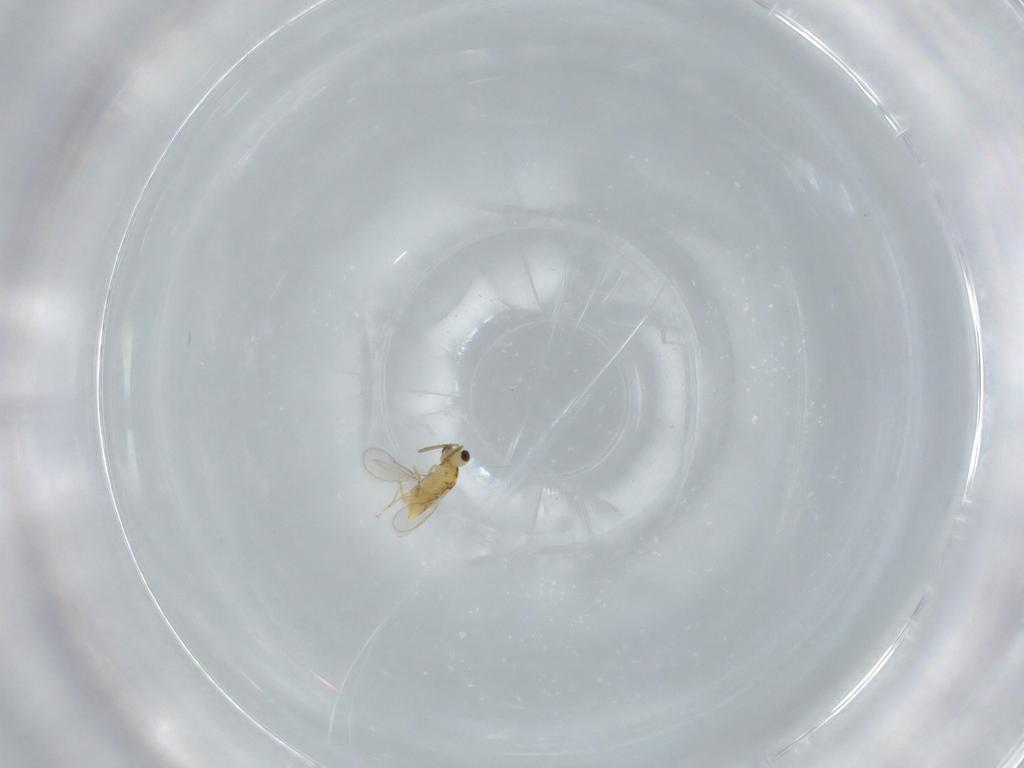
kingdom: Animalia
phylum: Arthropoda
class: Insecta
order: Hymenoptera
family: Aphelinidae
